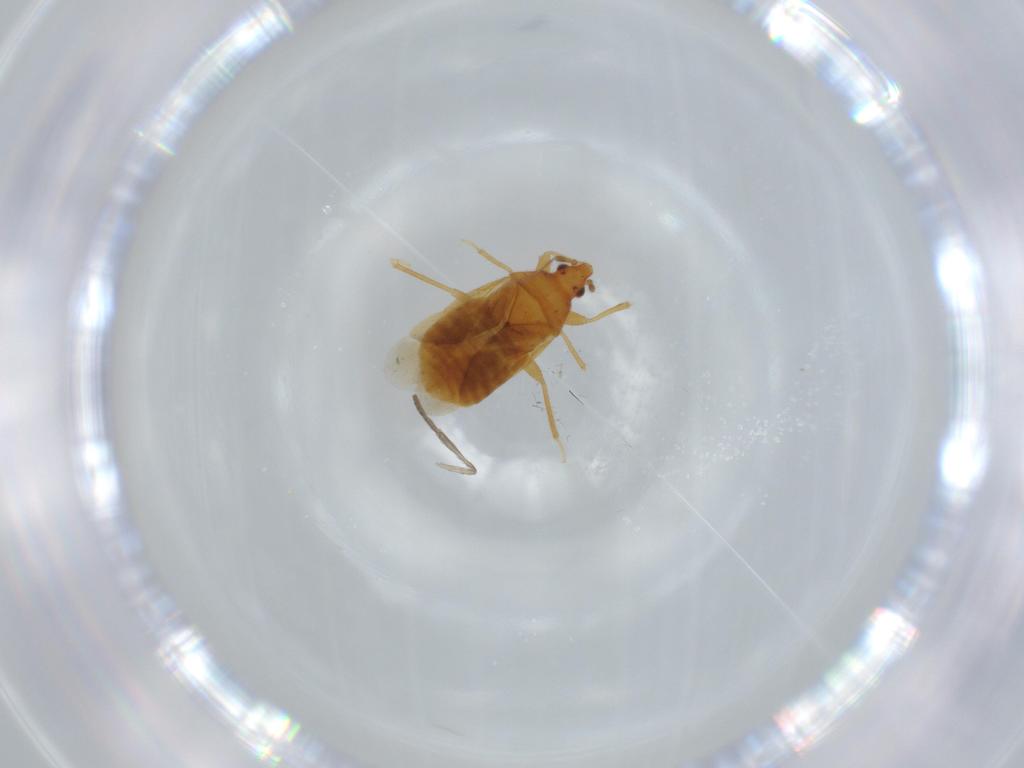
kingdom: Animalia
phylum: Arthropoda
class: Insecta
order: Hemiptera
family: Lasiochilidae
